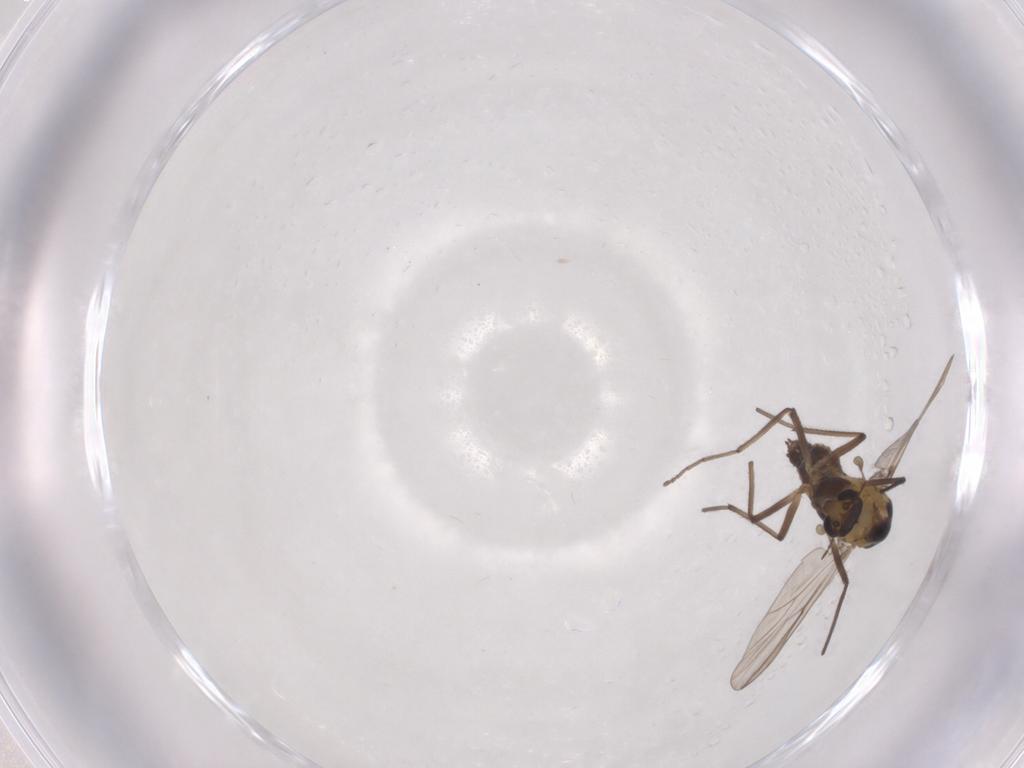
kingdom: Animalia
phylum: Arthropoda
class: Insecta
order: Diptera
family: Chironomidae
